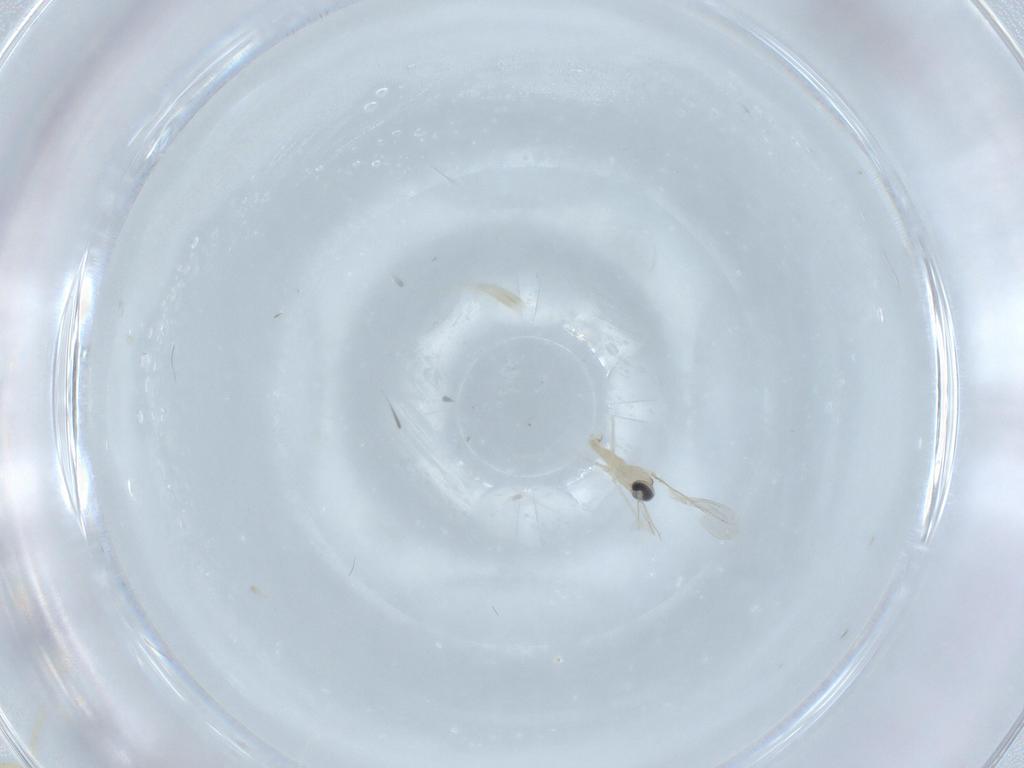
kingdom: Animalia
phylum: Arthropoda
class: Insecta
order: Diptera
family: Cecidomyiidae
